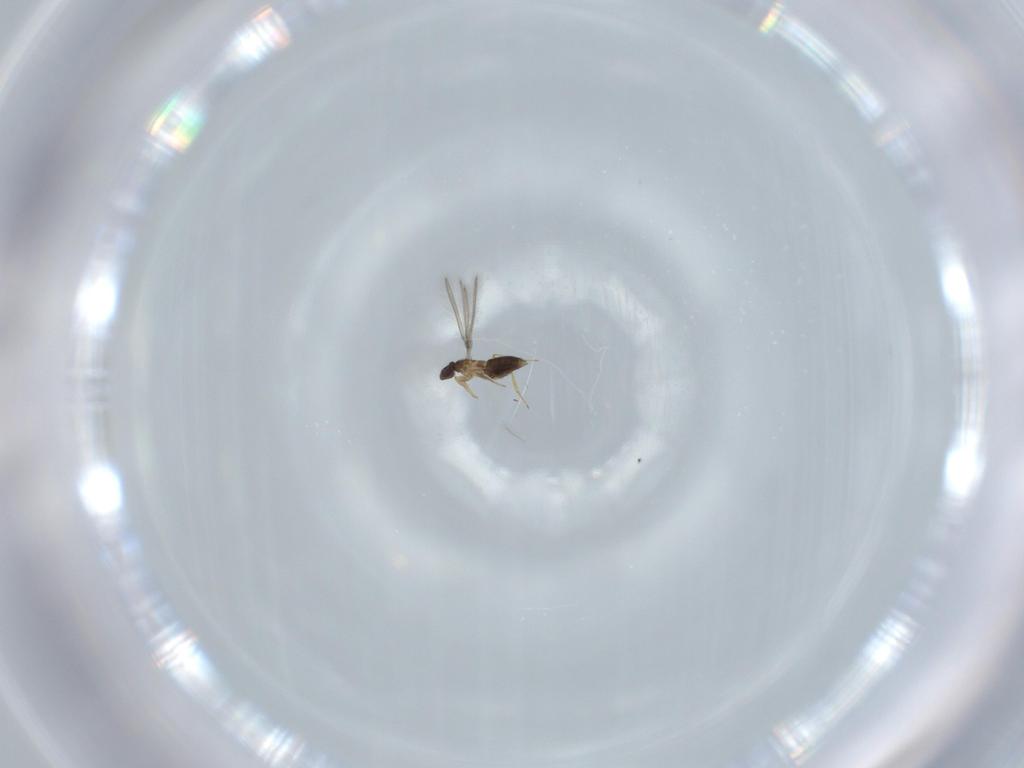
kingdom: Animalia
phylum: Arthropoda
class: Insecta
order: Hymenoptera
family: Mymaridae
